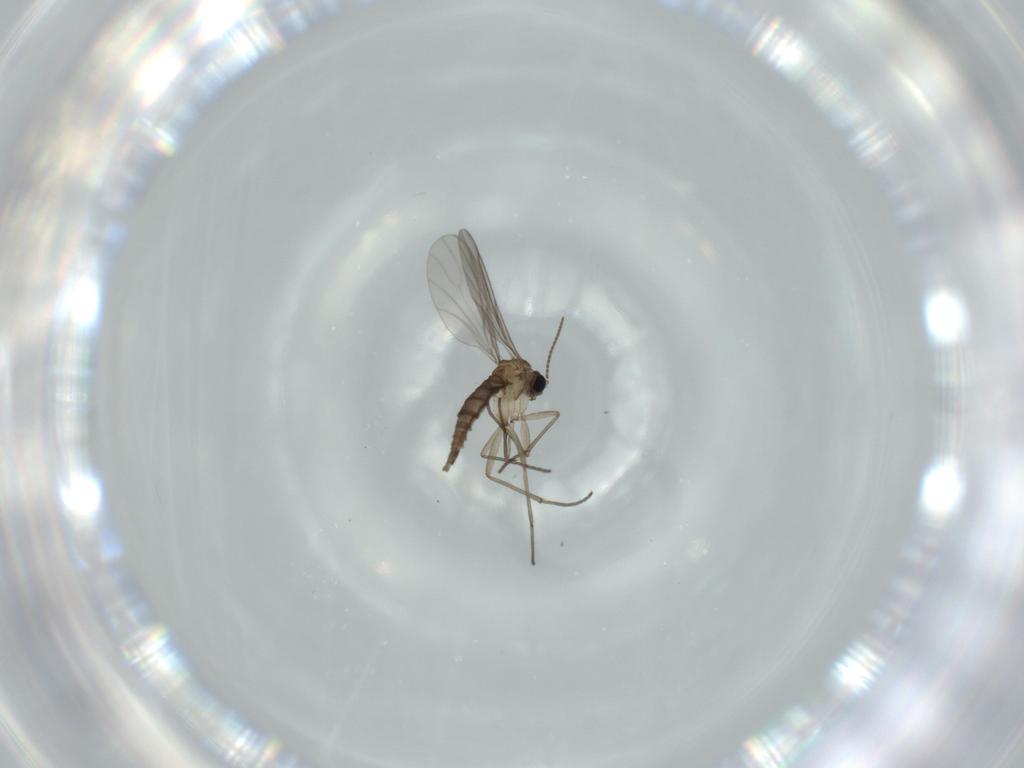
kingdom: Animalia
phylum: Arthropoda
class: Insecta
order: Diptera
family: Sciaridae
